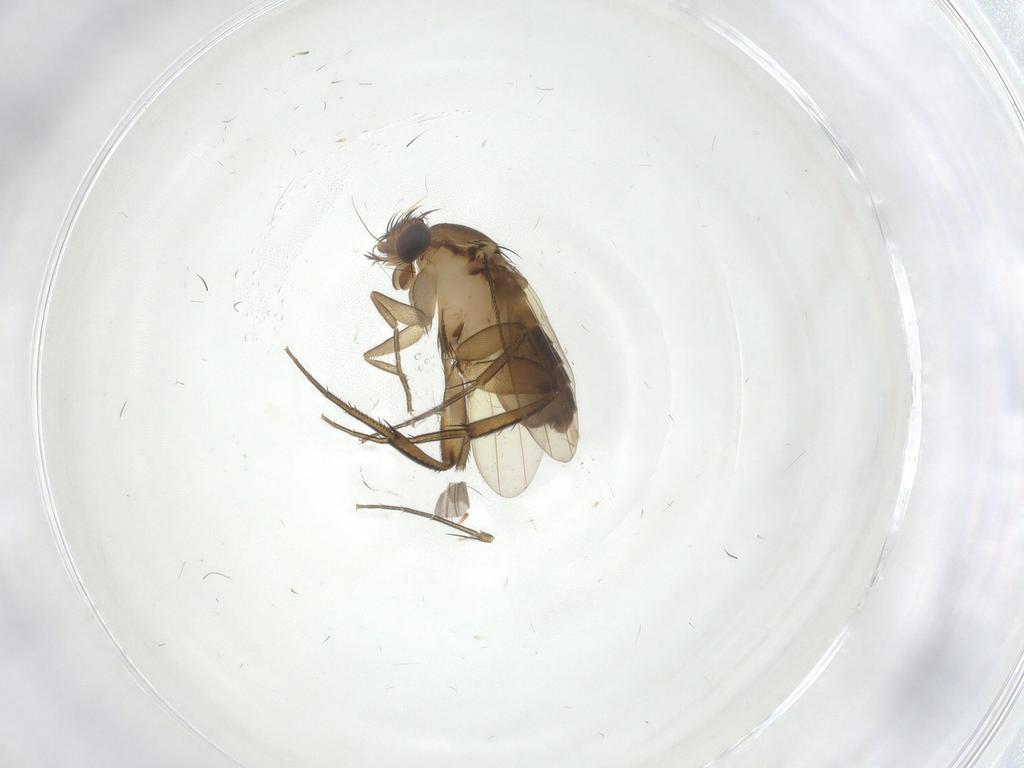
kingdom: Animalia
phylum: Arthropoda
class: Insecta
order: Diptera
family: Phoridae
